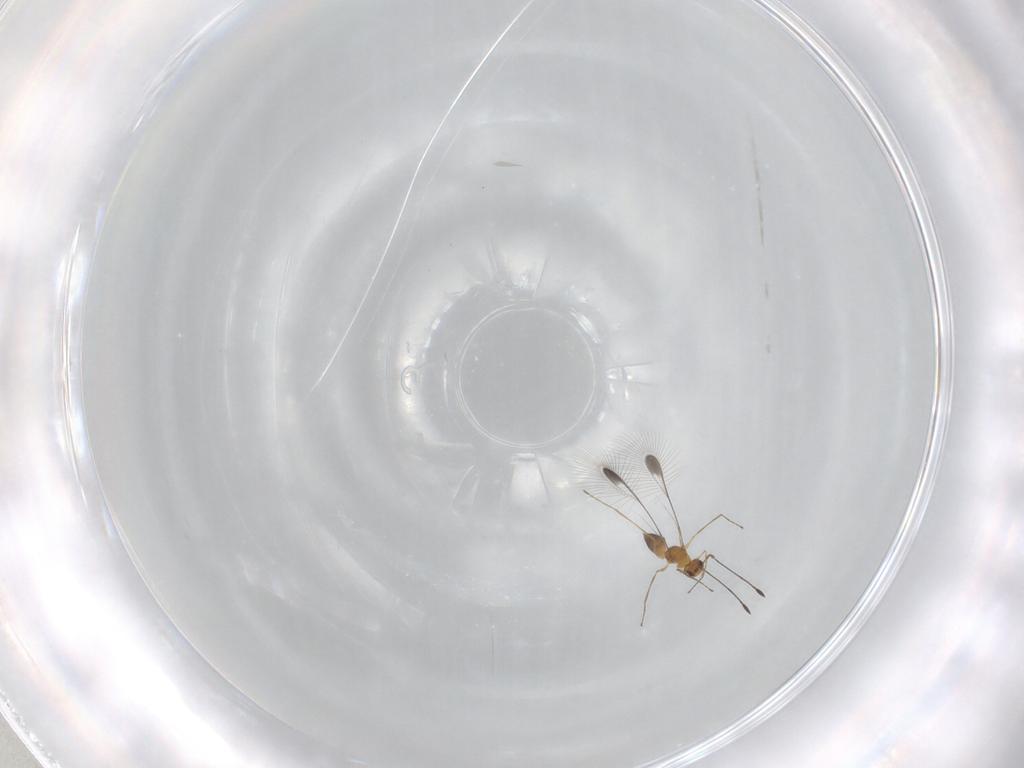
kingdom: Animalia
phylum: Arthropoda
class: Insecta
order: Hymenoptera
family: Mymaridae
